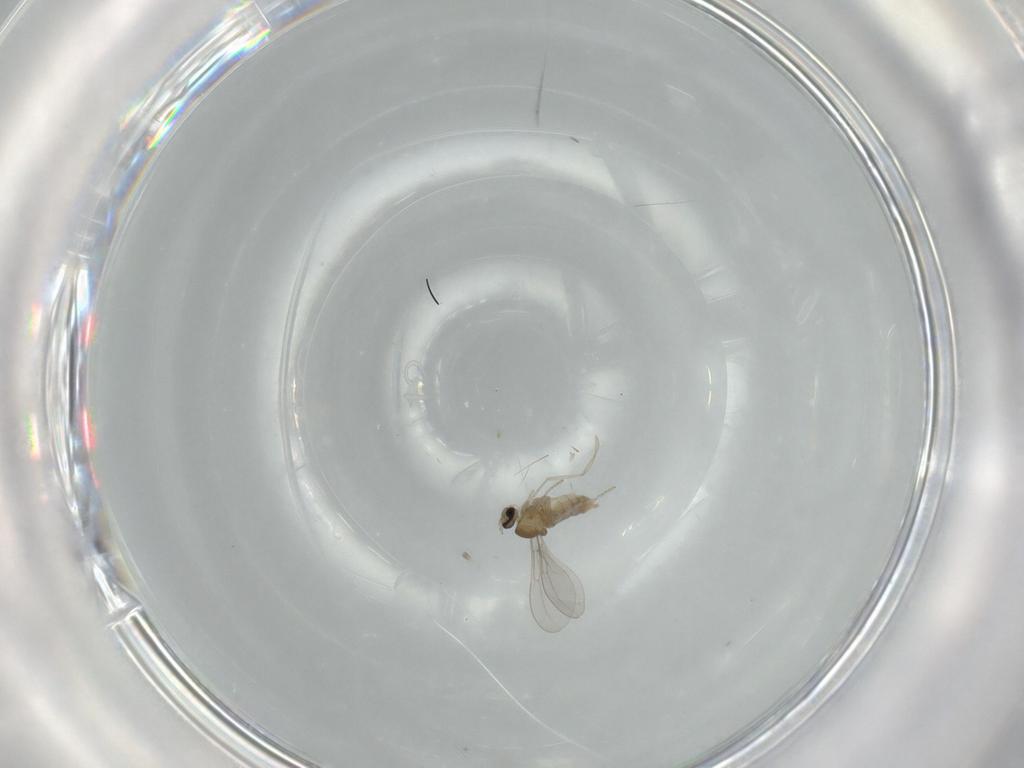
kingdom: Animalia
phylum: Arthropoda
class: Insecta
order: Diptera
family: Cecidomyiidae
